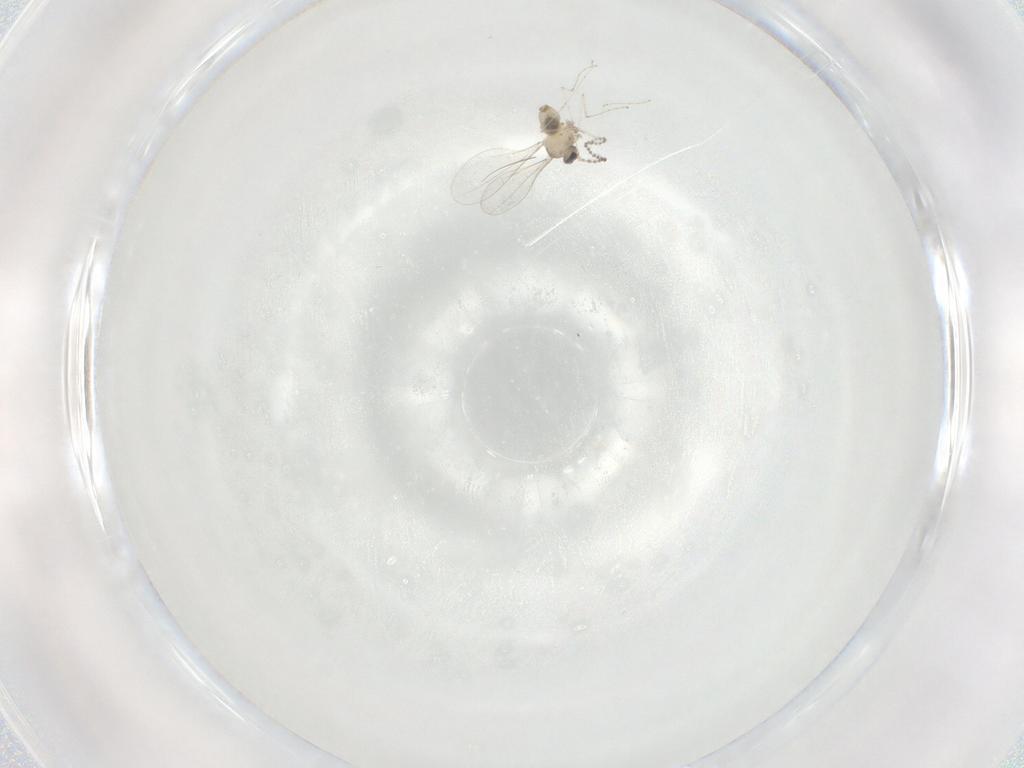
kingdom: Animalia
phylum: Arthropoda
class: Insecta
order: Diptera
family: Cecidomyiidae
